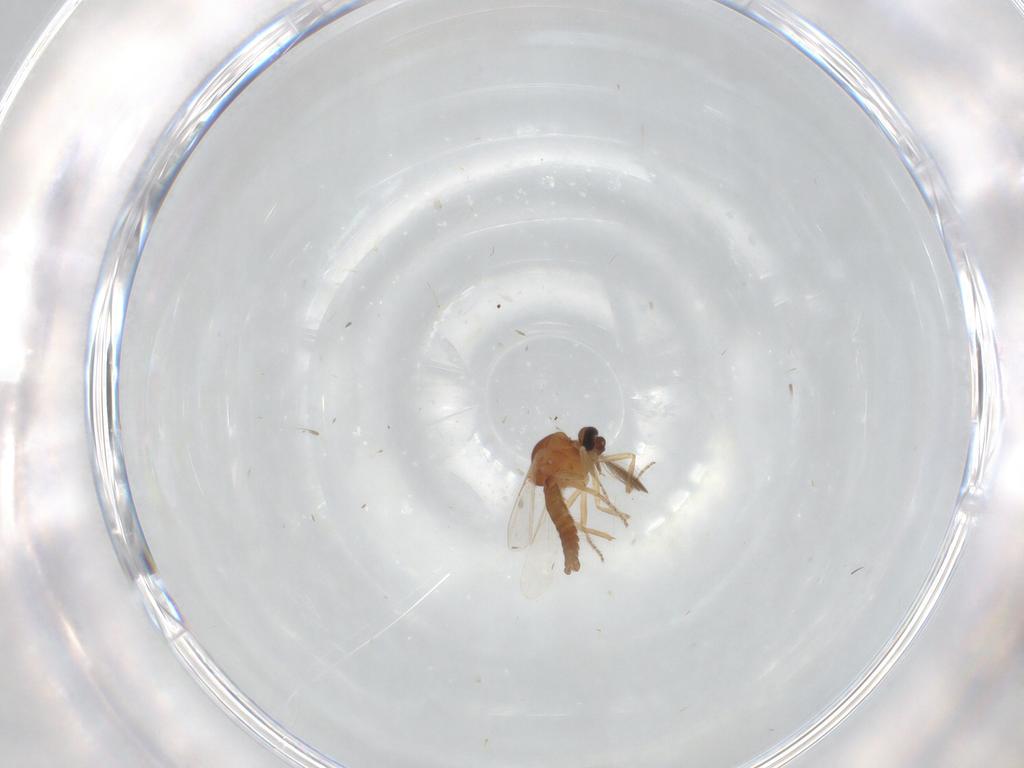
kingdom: Animalia
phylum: Arthropoda
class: Insecta
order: Diptera
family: Cecidomyiidae
